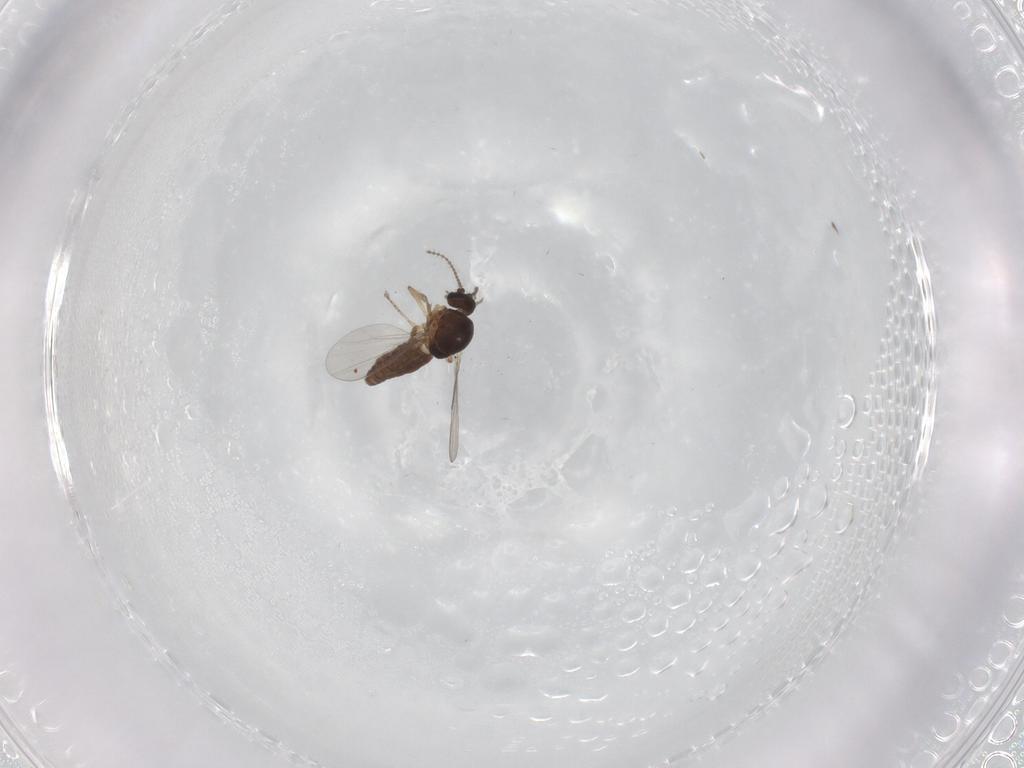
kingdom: Animalia
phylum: Arthropoda
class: Insecta
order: Diptera
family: Ceratopogonidae
